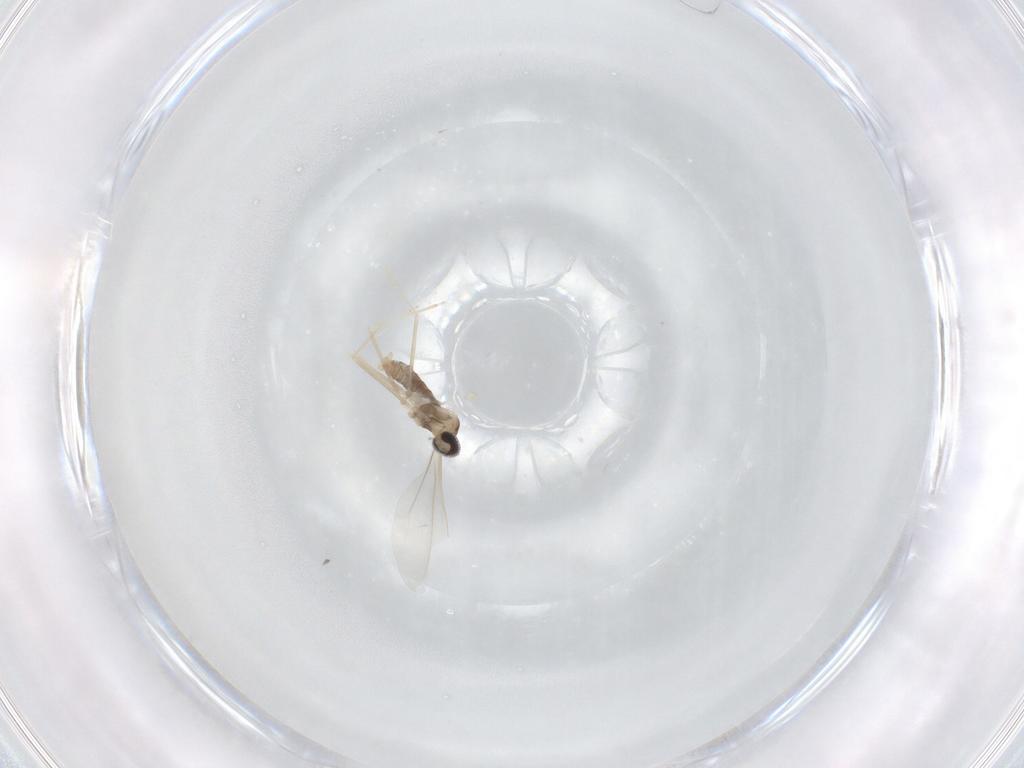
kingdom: Animalia
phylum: Arthropoda
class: Insecta
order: Diptera
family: Cecidomyiidae
